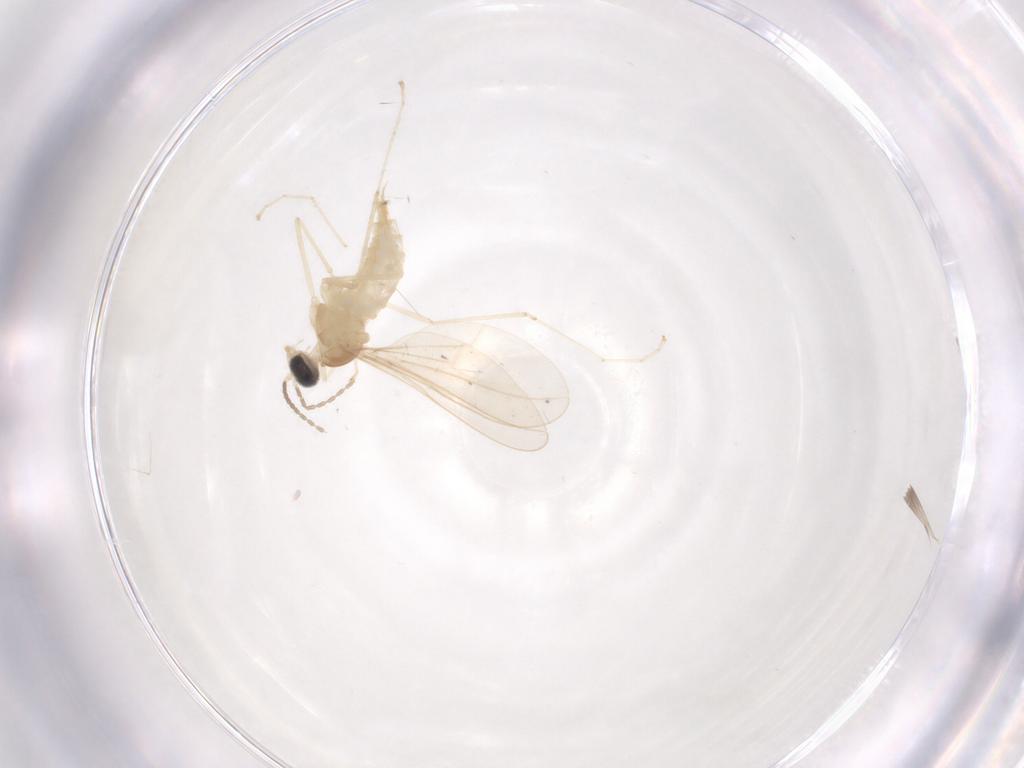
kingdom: Animalia
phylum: Arthropoda
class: Insecta
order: Diptera
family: Cecidomyiidae
